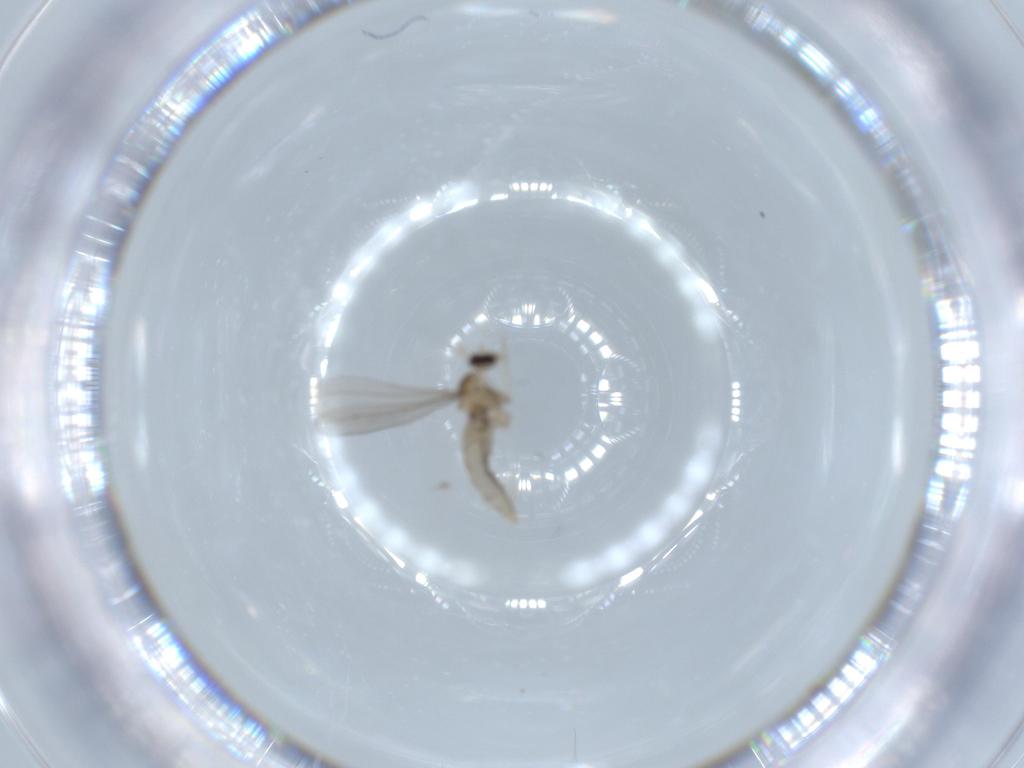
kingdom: Animalia
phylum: Arthropoda
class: Insecta
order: Diptera
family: Cecidomyiidae
